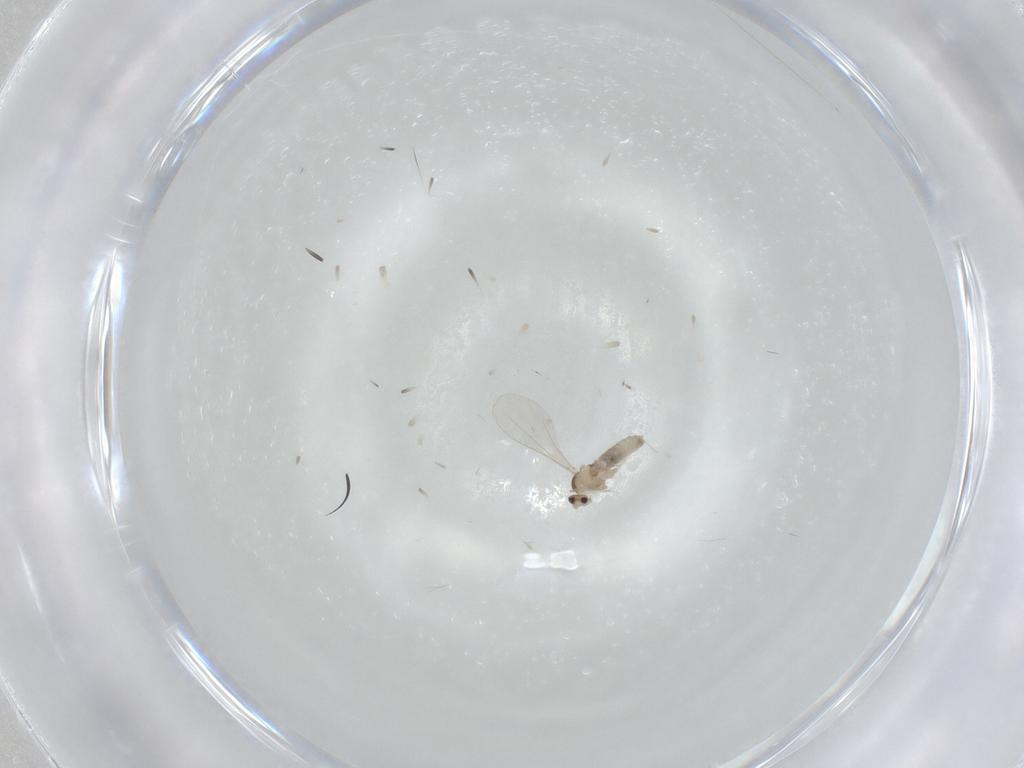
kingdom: Animalia
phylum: Arthropoda
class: Insecta
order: Diptera
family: Cecidomyiidae
